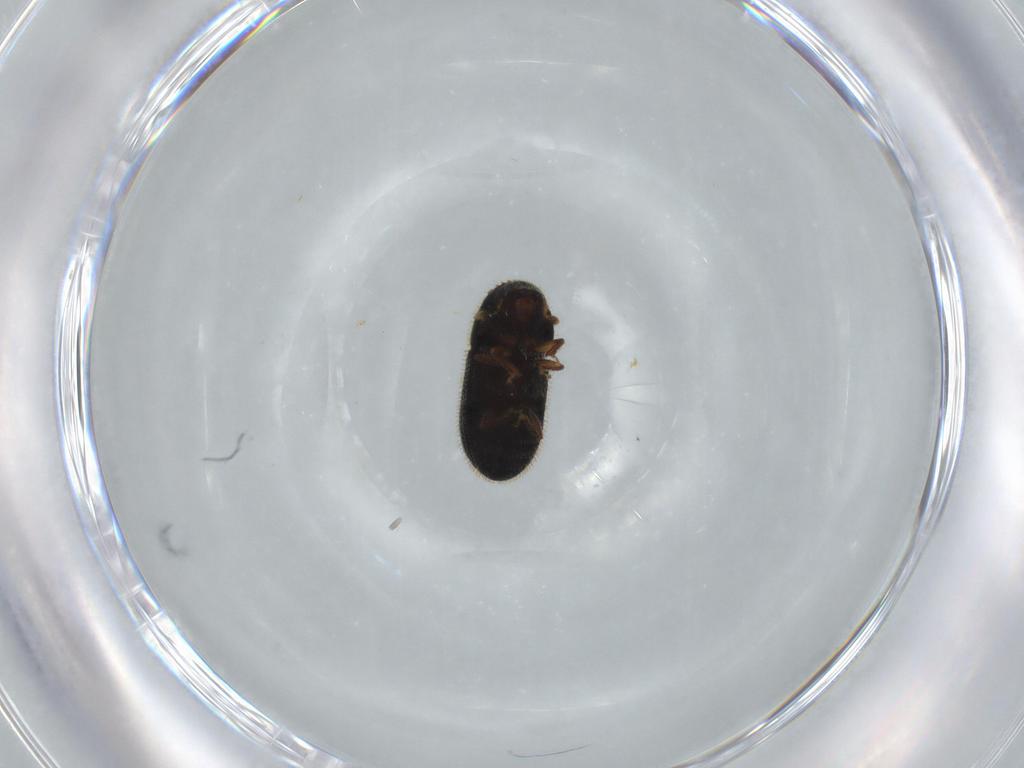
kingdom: Animalia
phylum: Arthropoda
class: Insecta
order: Coleoptera
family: Curculionidae
